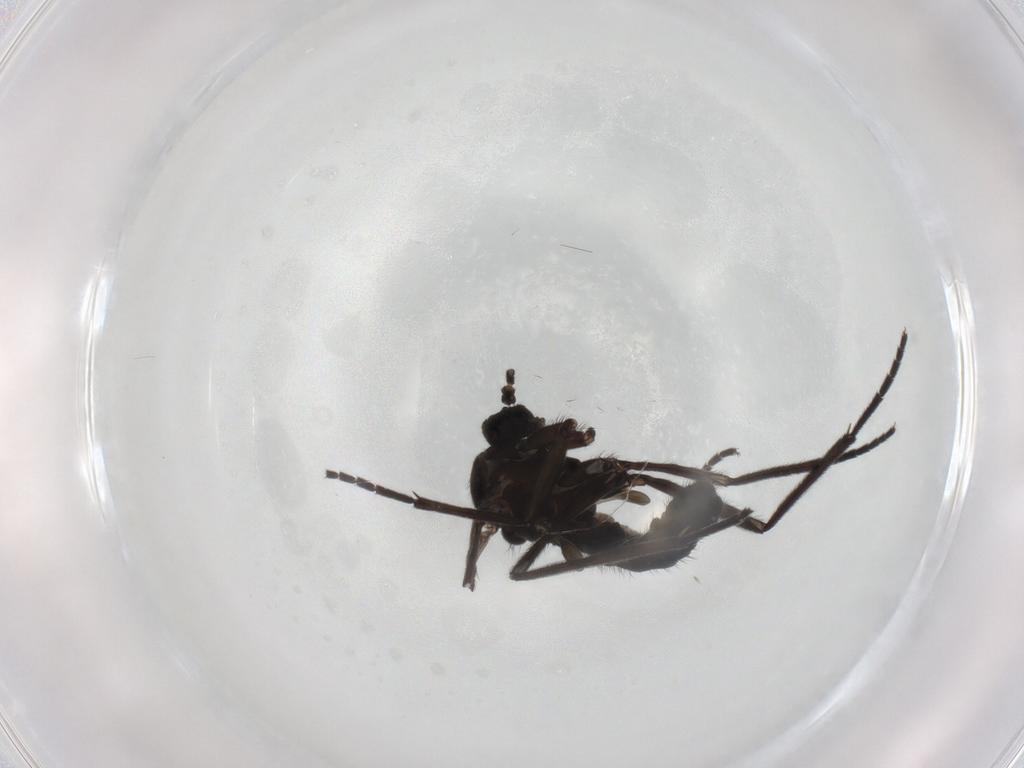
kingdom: Animalia
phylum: Arthropoda
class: Insecta
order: Diptera
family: Sciaridae
